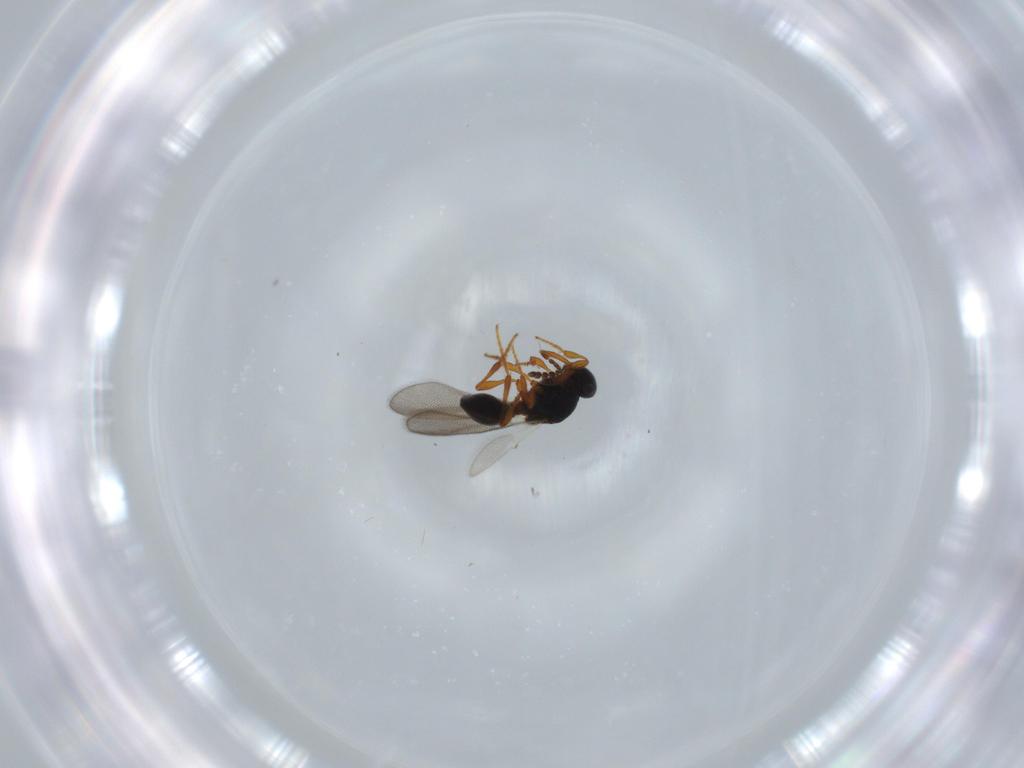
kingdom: Animalia
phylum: Arthropoda
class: Insecta
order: Hymenoptera
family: Platygastridae
